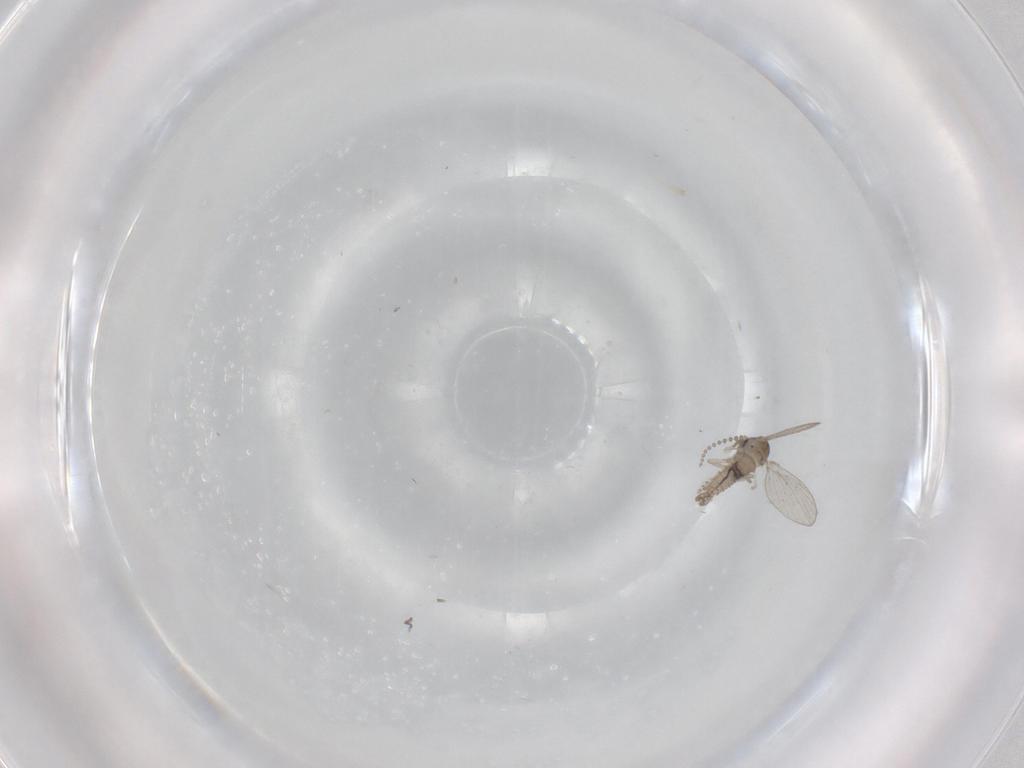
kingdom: Animalia
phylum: Arthropoda
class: Insecta
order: Diptera
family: Psychodidae
